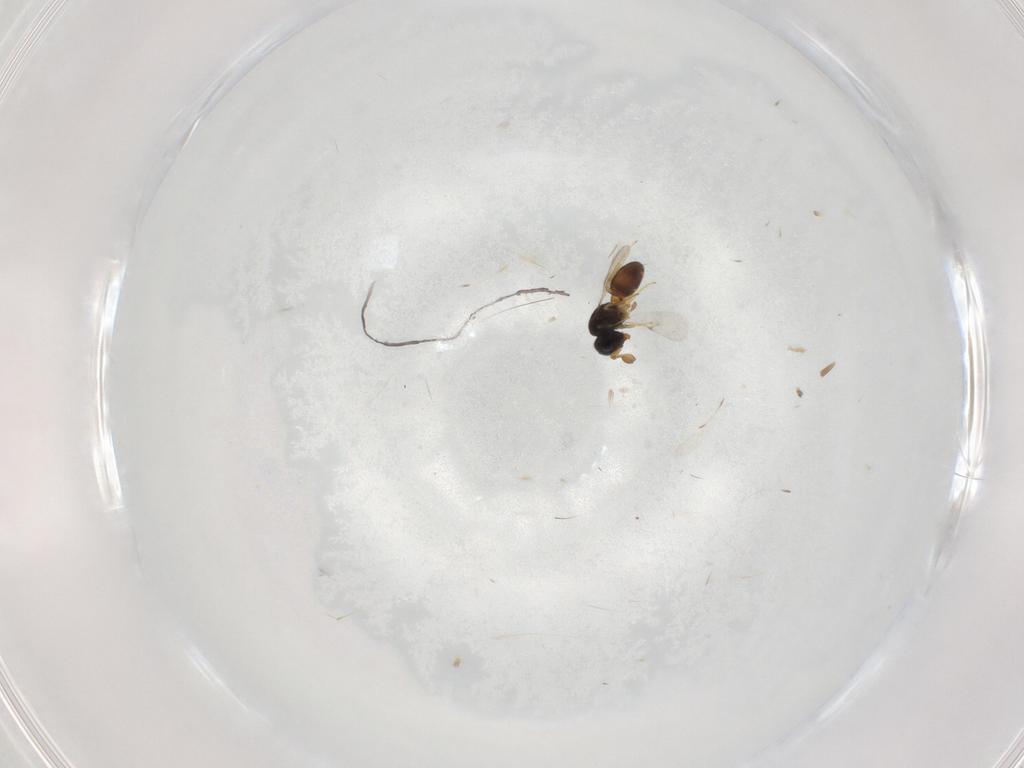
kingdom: Animalia
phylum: Arthropoda
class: Insecta
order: Hymenoptera
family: Scelionidae
